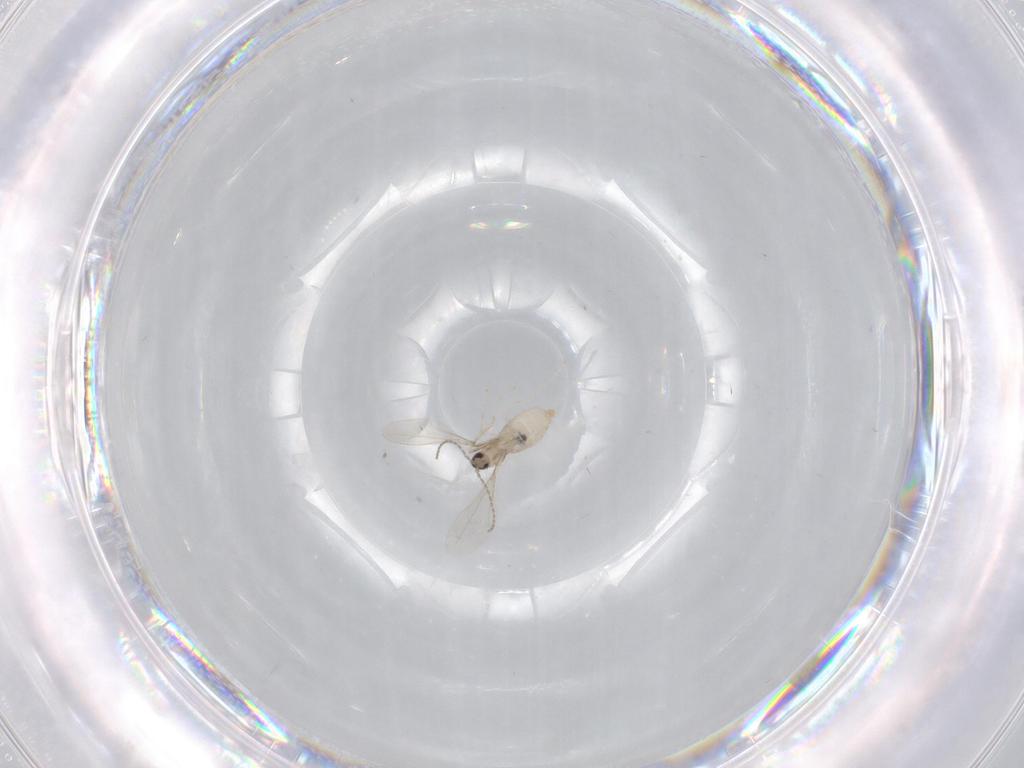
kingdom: Animalia
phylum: Arthropoda
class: Insecta
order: Diptera
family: Cecidomyiidae
